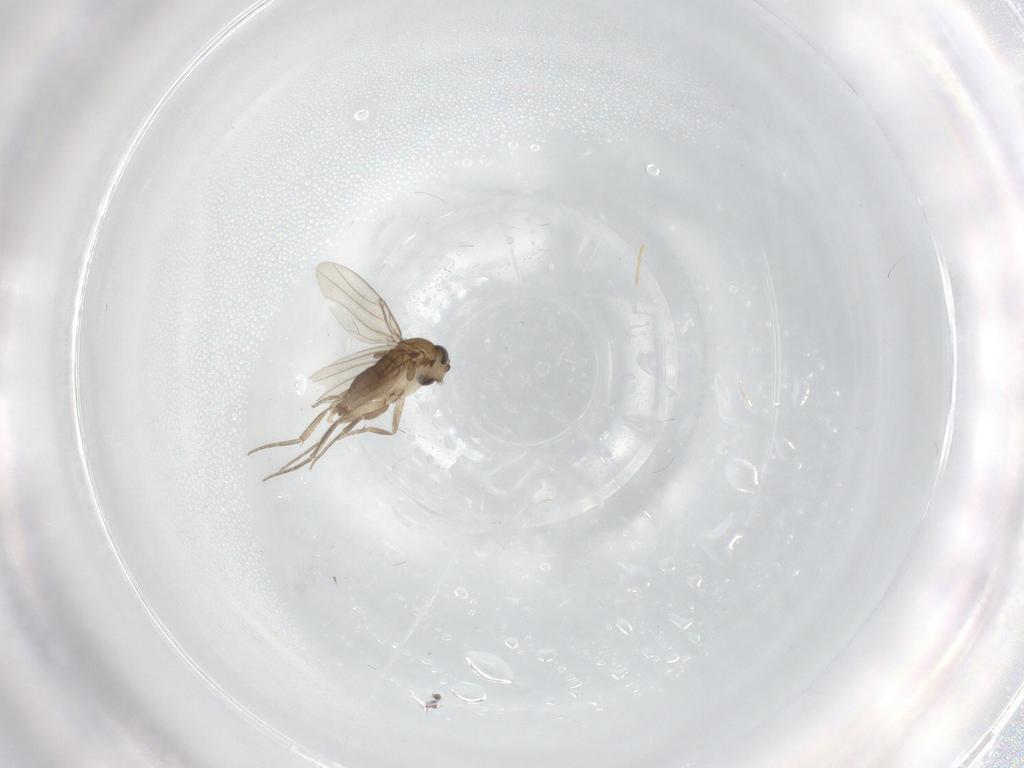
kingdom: Animalia
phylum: Arthropoda
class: Insecta
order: Diptera
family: Phoridae
